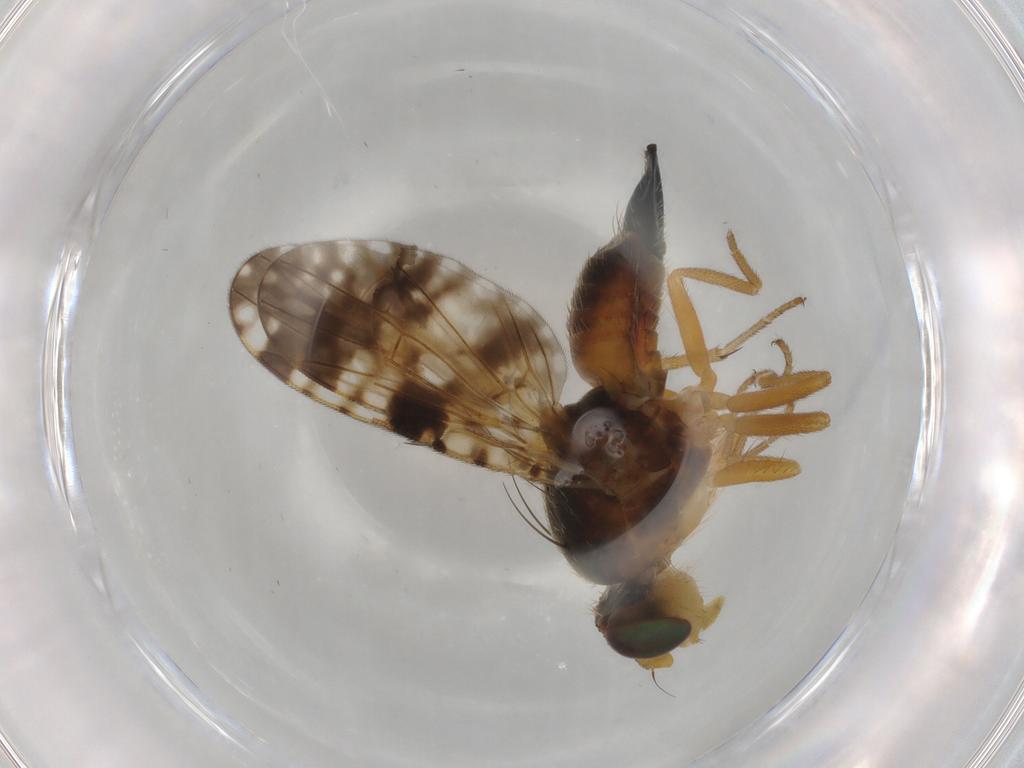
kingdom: Animalia
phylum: Arthropoda
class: Insecta
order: Diptera
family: Tephritidae
